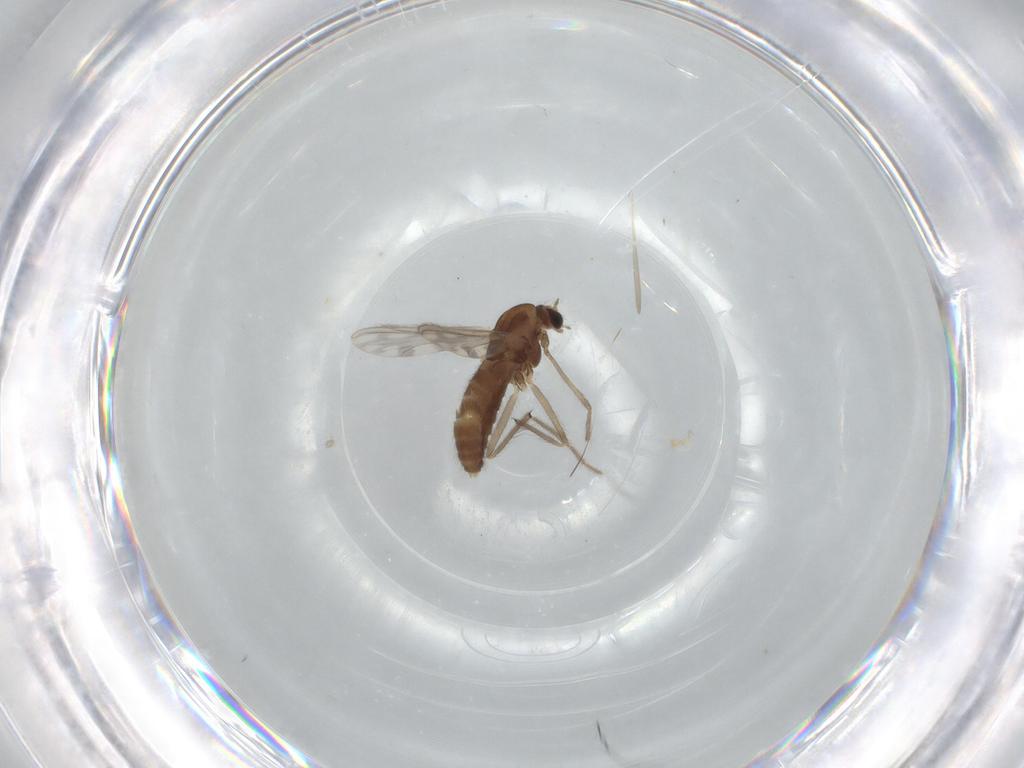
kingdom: Animalia
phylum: Arthropoda
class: Insecta
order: Diptera
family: Chironomidae
